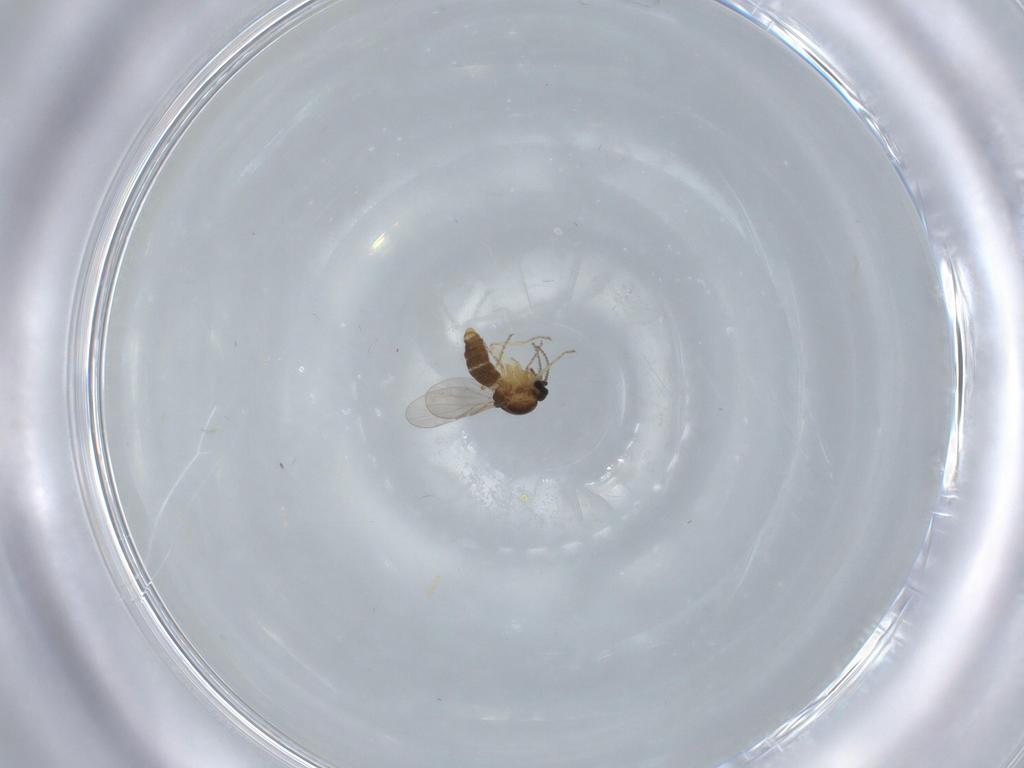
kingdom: Animalia
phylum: Arthropoda
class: Insecta
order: Diptera
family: Ceratopogonidae
